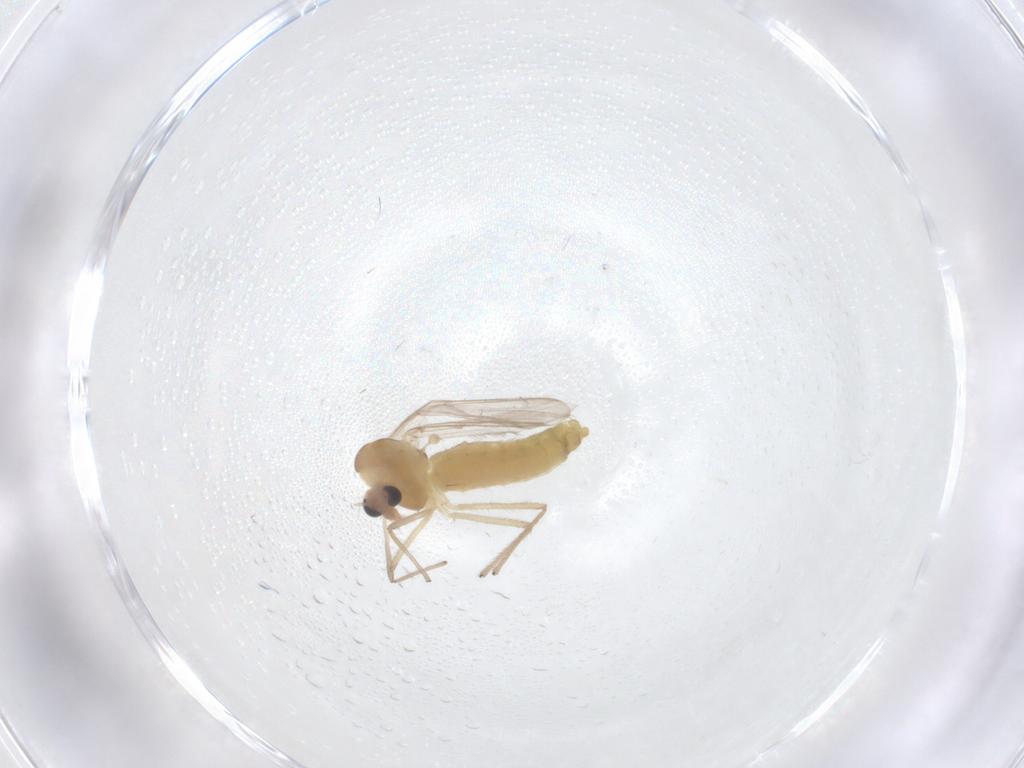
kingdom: Animalia
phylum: Arthropoda
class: Insecta
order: Diptera
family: Chironomidae
